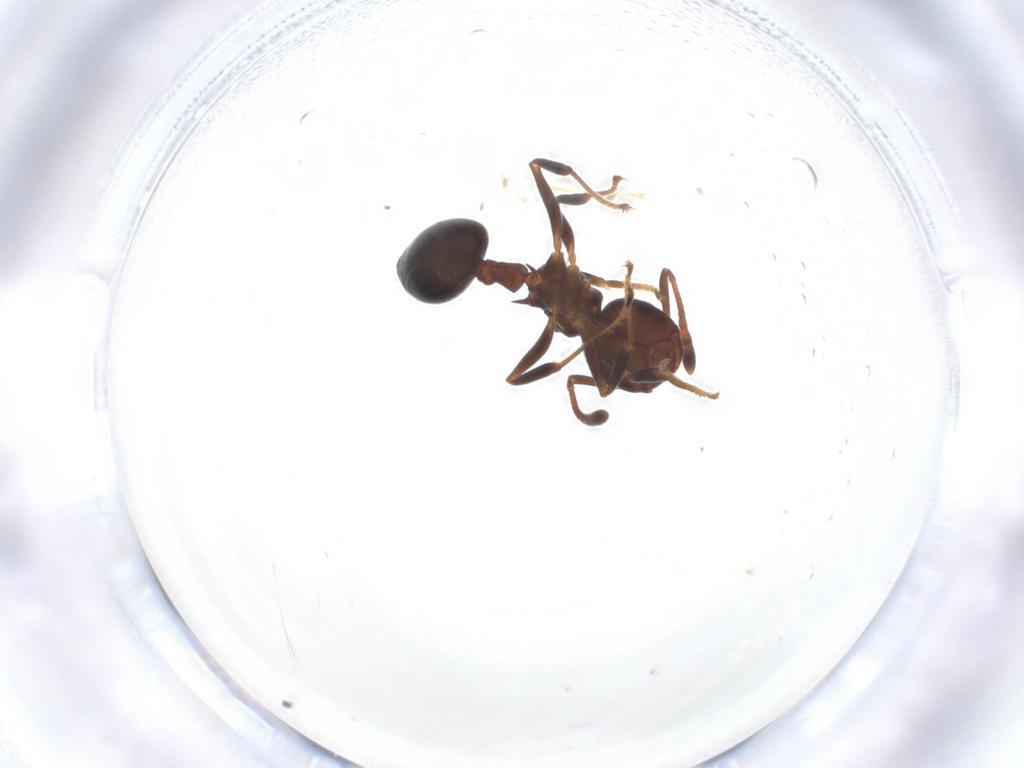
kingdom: Animalia
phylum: Arthropoda
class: Insecta
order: Hymenoptera
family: Formicidae
